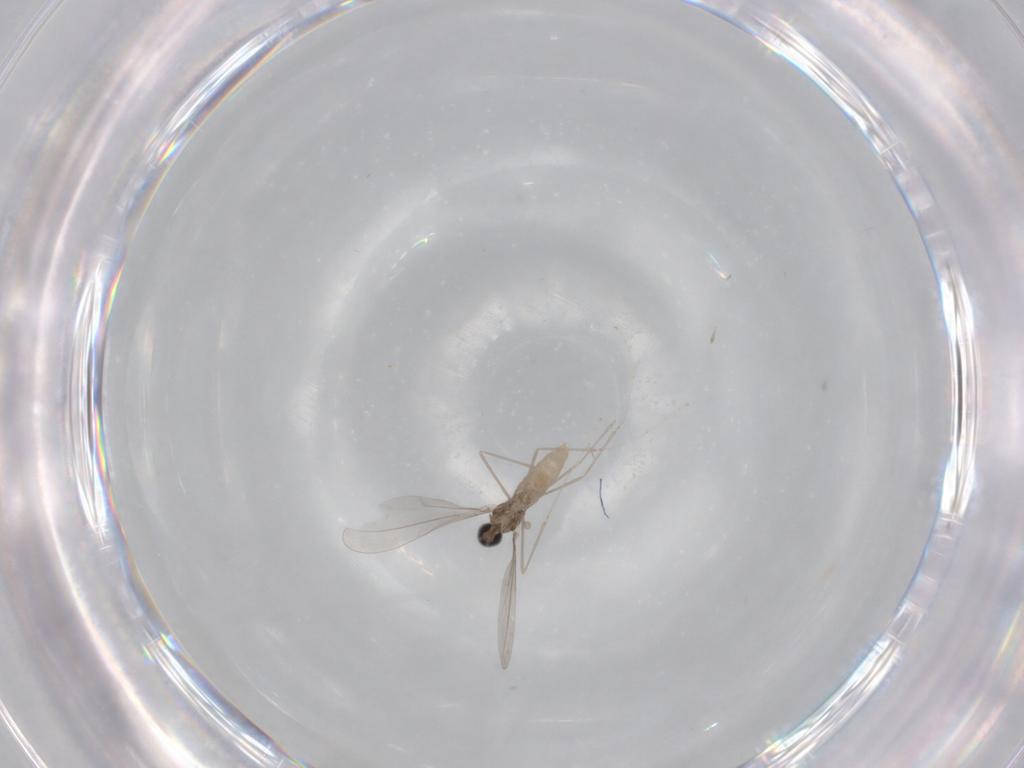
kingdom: Animalia
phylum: Arthropoda
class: Insecta
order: Diptera
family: Cecidomyiidae
